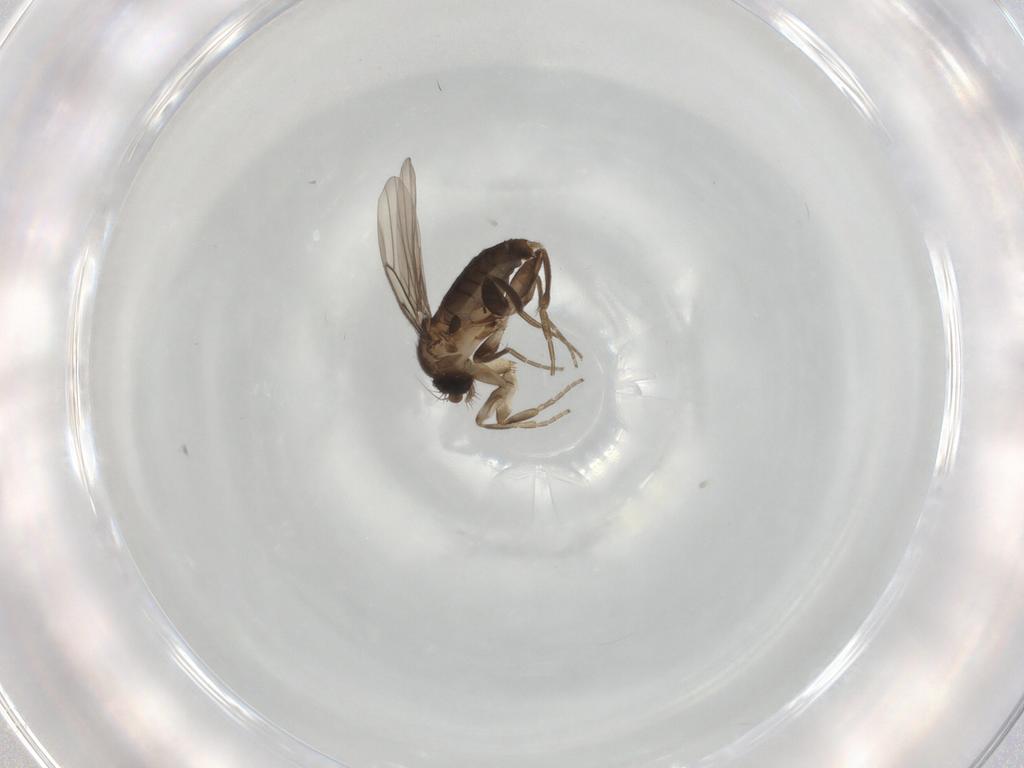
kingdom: Animalia
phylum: Arthropoda
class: Insecta
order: Diptera
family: Phoridae
